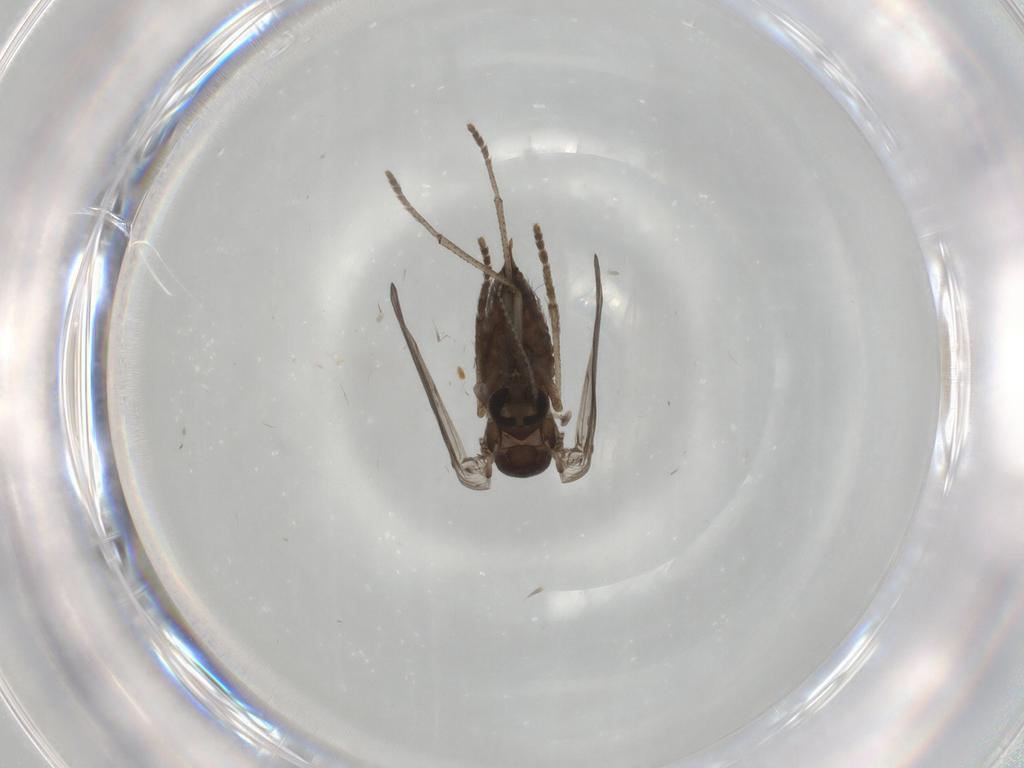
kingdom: Animalia
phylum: Arthropoda
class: Insecta
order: Diptera
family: Psychodidae
